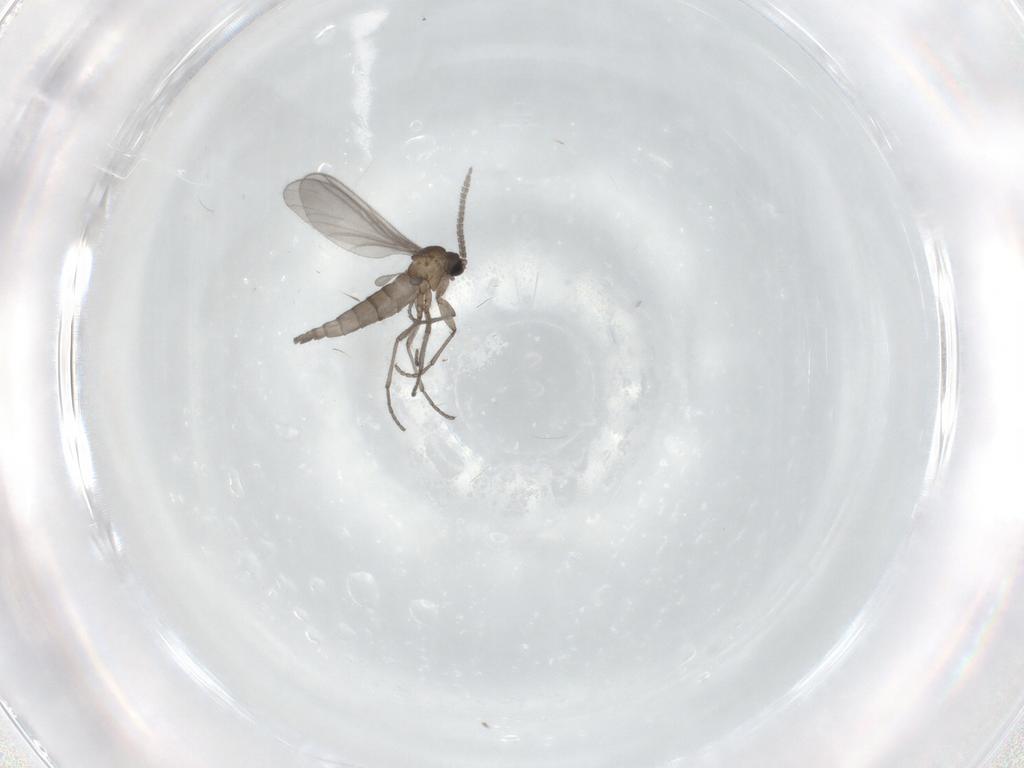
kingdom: Animalia
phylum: Arthropoda
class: Insecta
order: Diptera
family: Sciaridae
